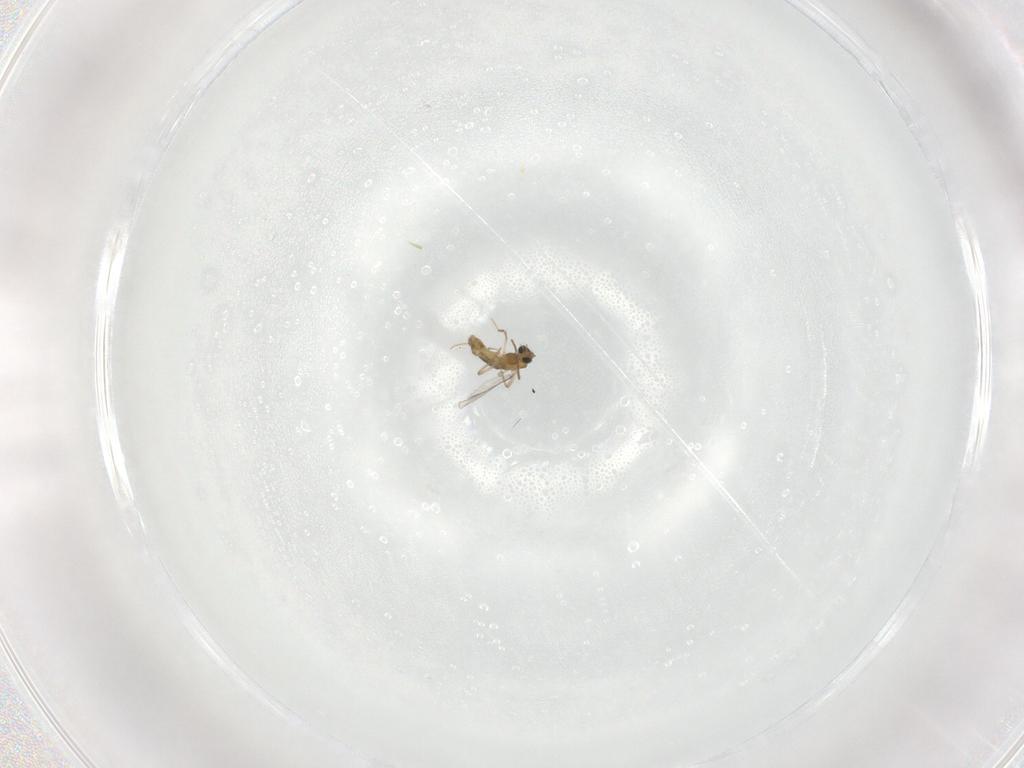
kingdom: Animalia
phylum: Arthropoda
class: Insecta
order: Diptera
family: Chironomidae
